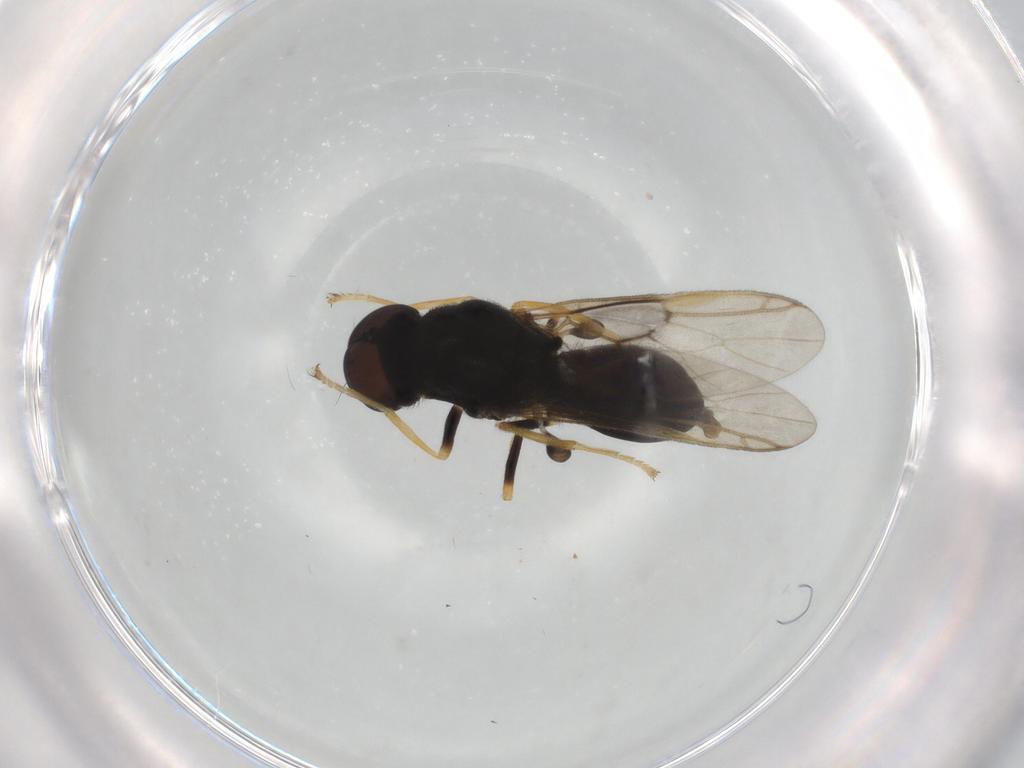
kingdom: Animalia
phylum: Arthropoda
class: Insecta
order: Diptera
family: Stratiomyidae
